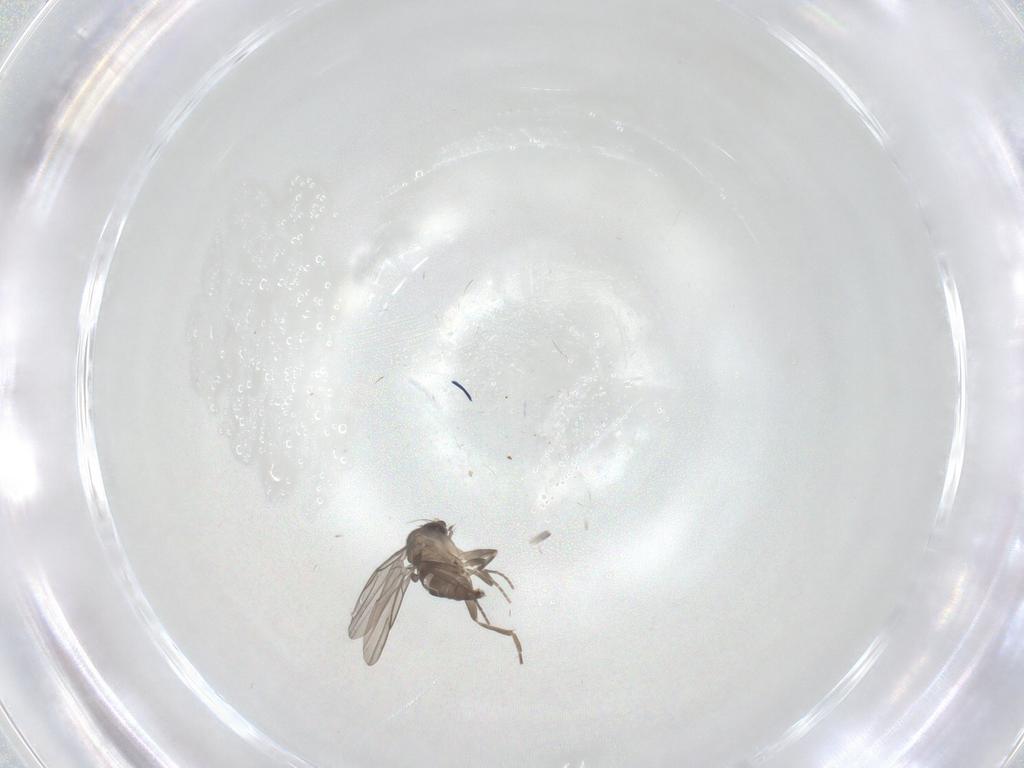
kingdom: Animalia
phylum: Arthropoda
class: Insecta
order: Diptera
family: Phoridae
